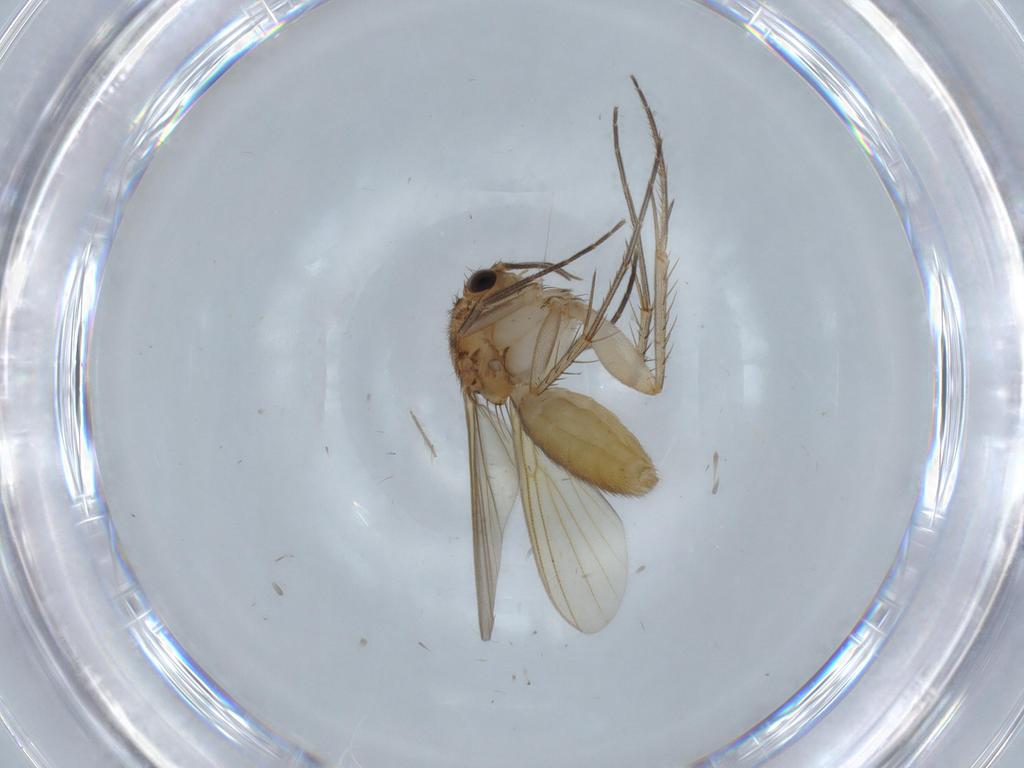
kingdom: Animalia
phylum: Arthropoda
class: Insecta
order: Diptera
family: Mycetophilidae
